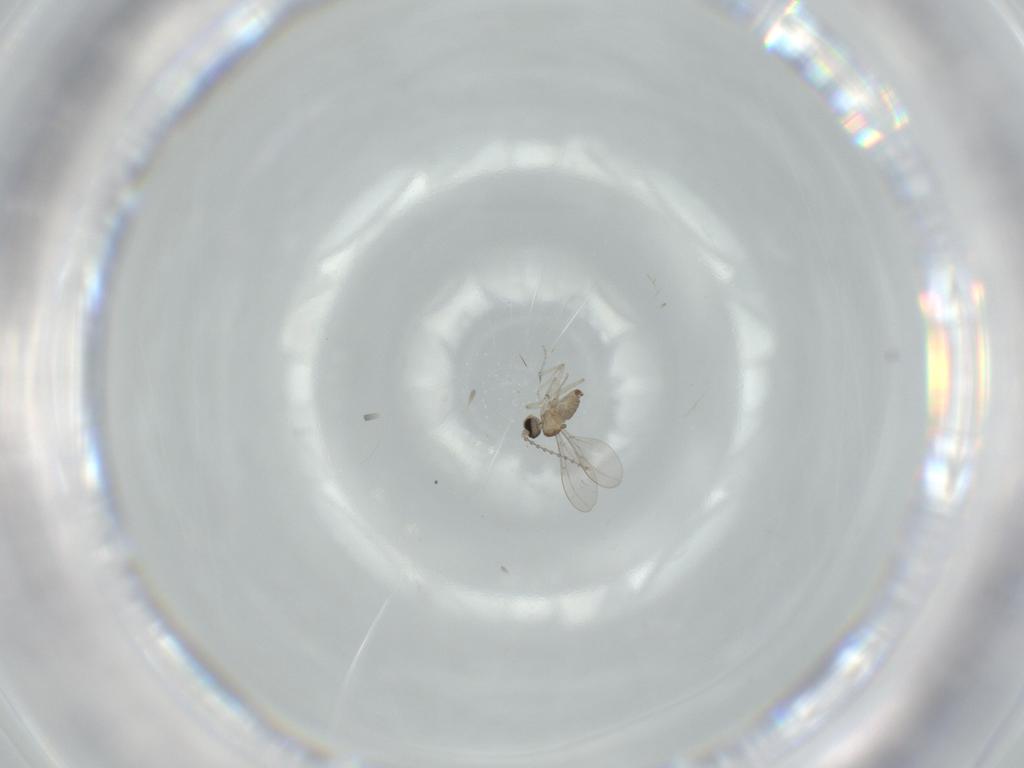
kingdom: Animalia
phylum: Arthropoda
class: Insecta
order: Diptera
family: Cecidomyiidae
